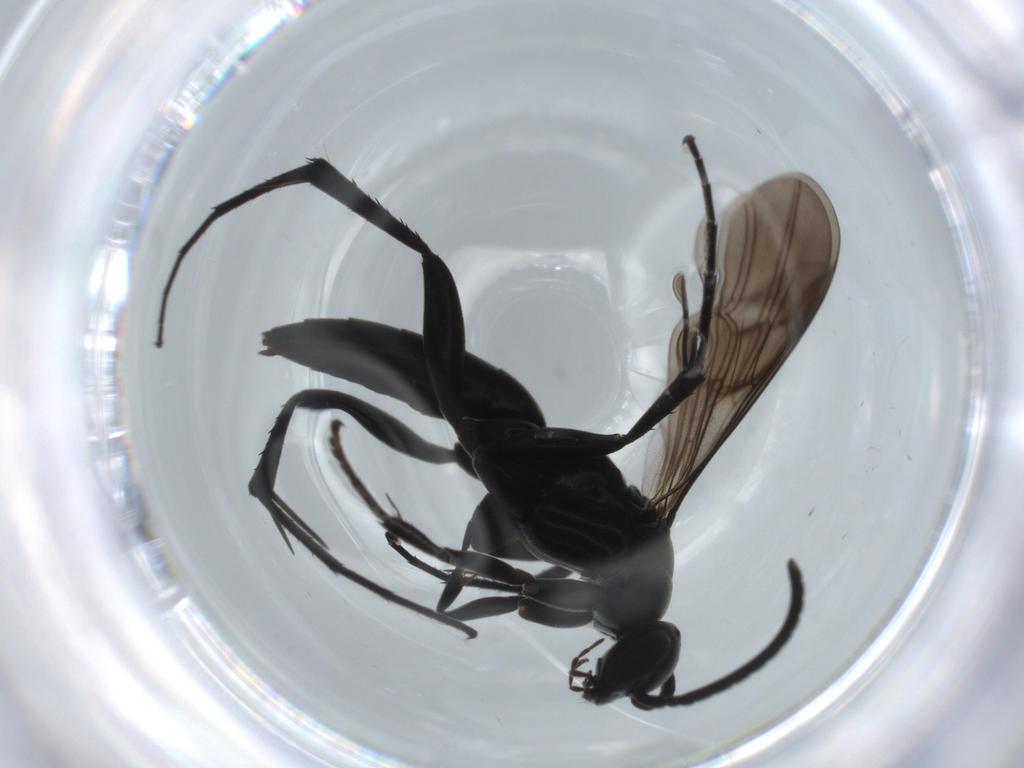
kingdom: Animalia
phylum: Arthropoda
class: Insecta
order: Hymenoptera
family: Pompilidae
